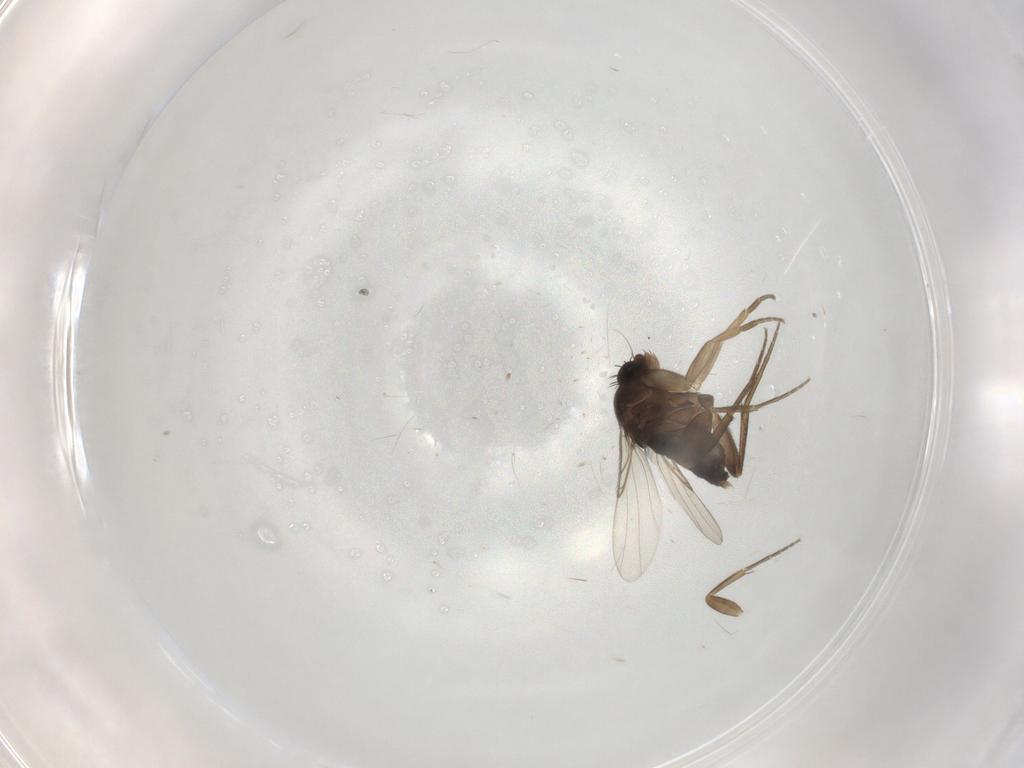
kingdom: Animalia
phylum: Arthropoda
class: Insecta
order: Diptera
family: Phoridae
